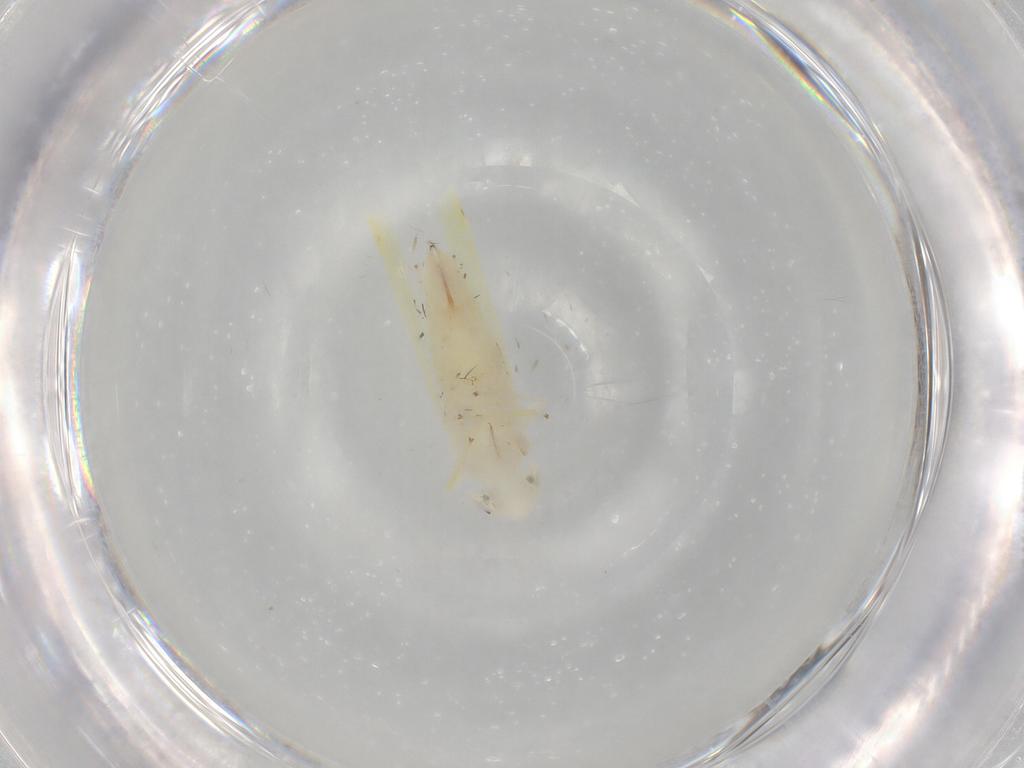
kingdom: Animalia
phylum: Arthropoda
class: Insecta
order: Hemiptera
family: Cicadellidae
